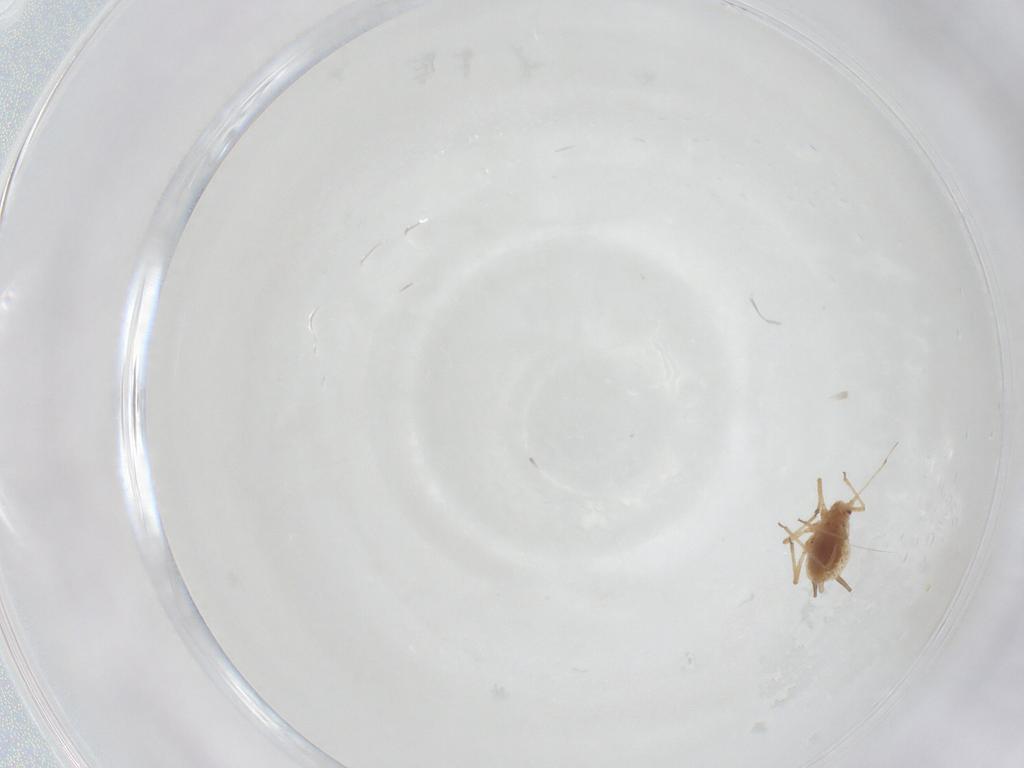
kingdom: Animalia
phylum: Arthropoda
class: Insecta
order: Hemiptera
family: Aphididae
